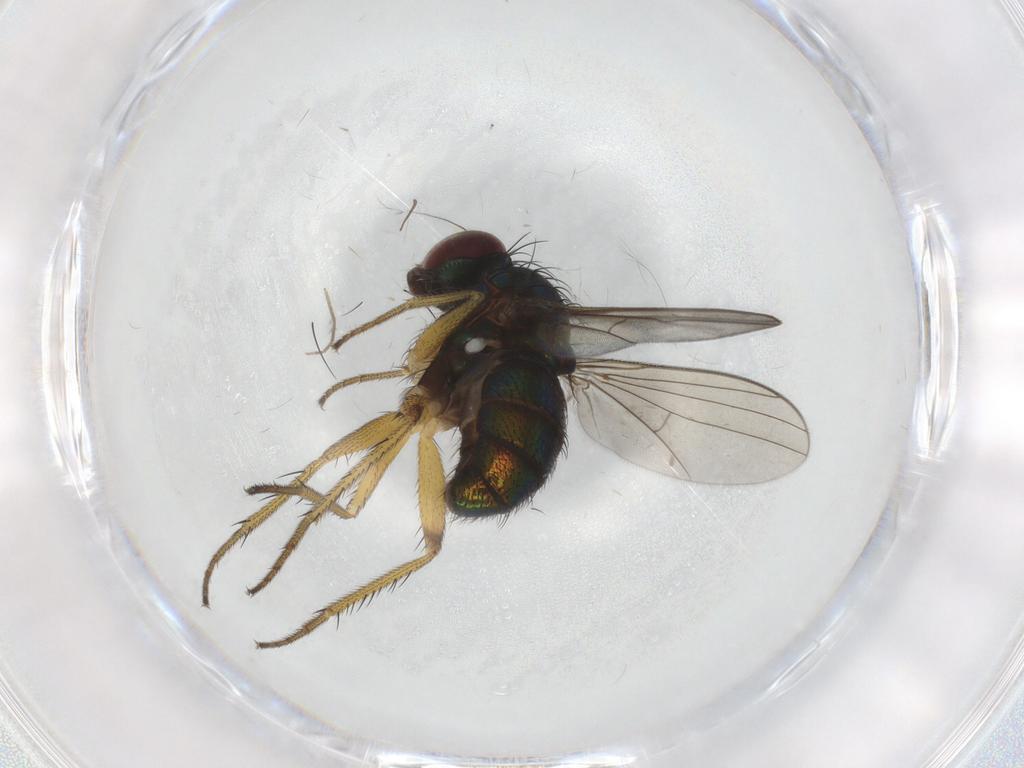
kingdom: Animalia
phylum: Arthropoda
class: Insecta
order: Diptera
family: Dolichopodidae
